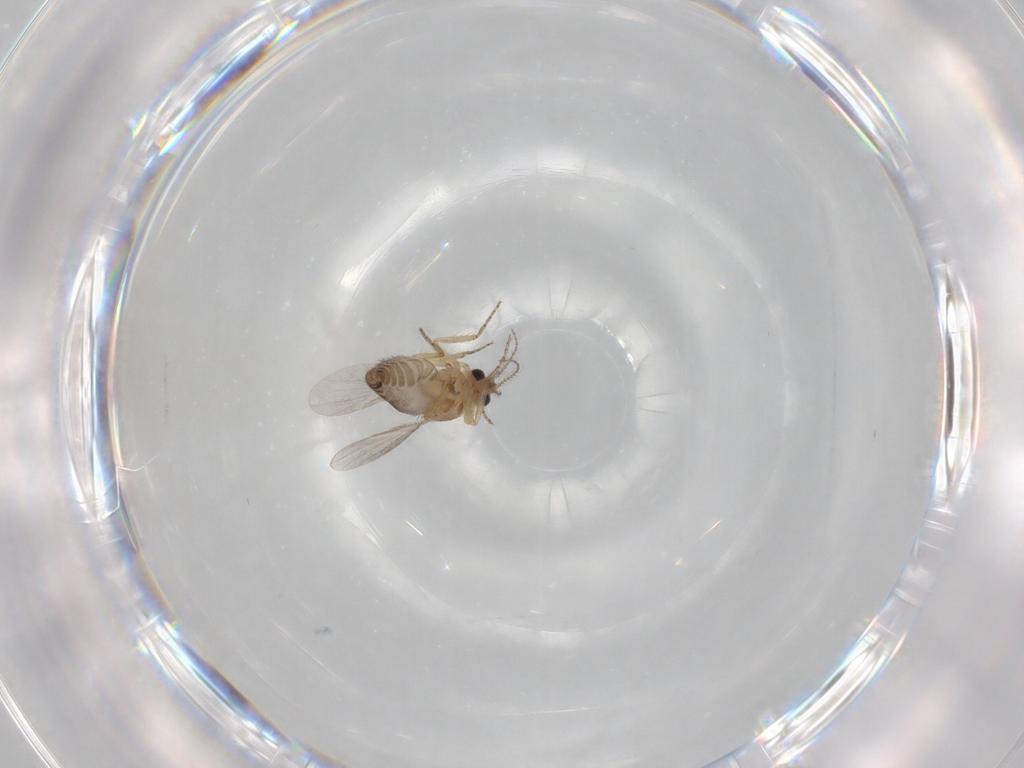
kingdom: Animalia
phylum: Arthropoda
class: Insecta
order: Diptera
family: Ceratopogonidae
